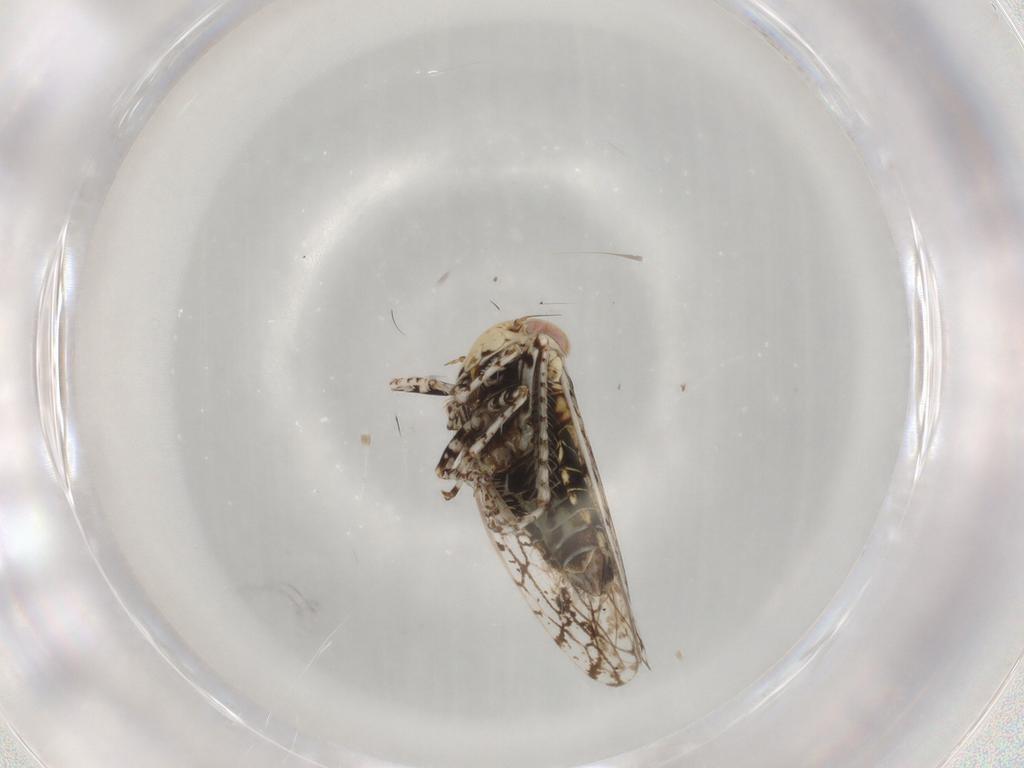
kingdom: Animalia
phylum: Arthropoda
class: Insecta
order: Hemiptera
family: Cicadellidae
